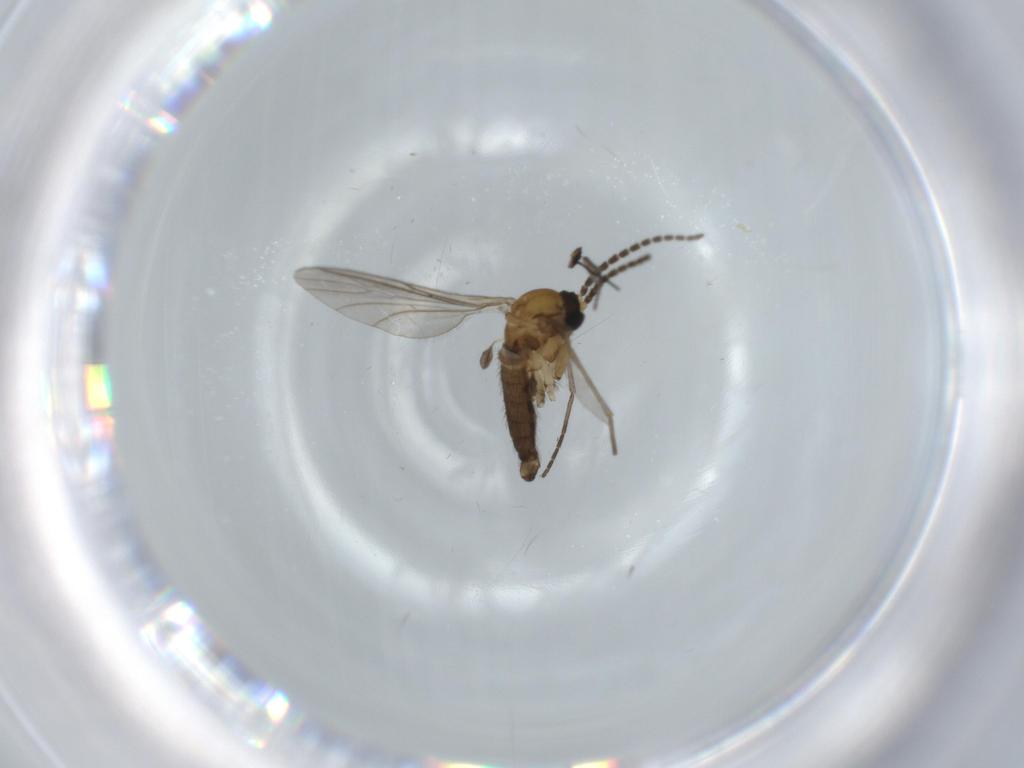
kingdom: Animalia
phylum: Arthropoda
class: Insecta
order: Diptera
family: Sciaridae
